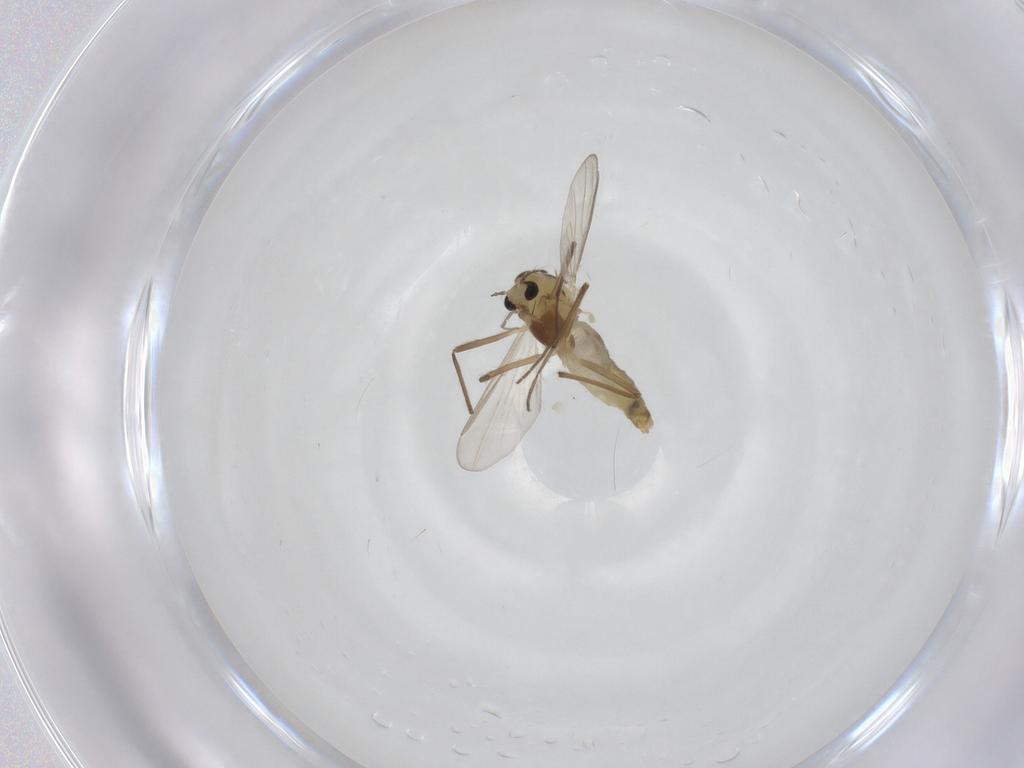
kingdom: Animalia
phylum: Arthropoda
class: Insecta
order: Diptera
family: Chironomidae
